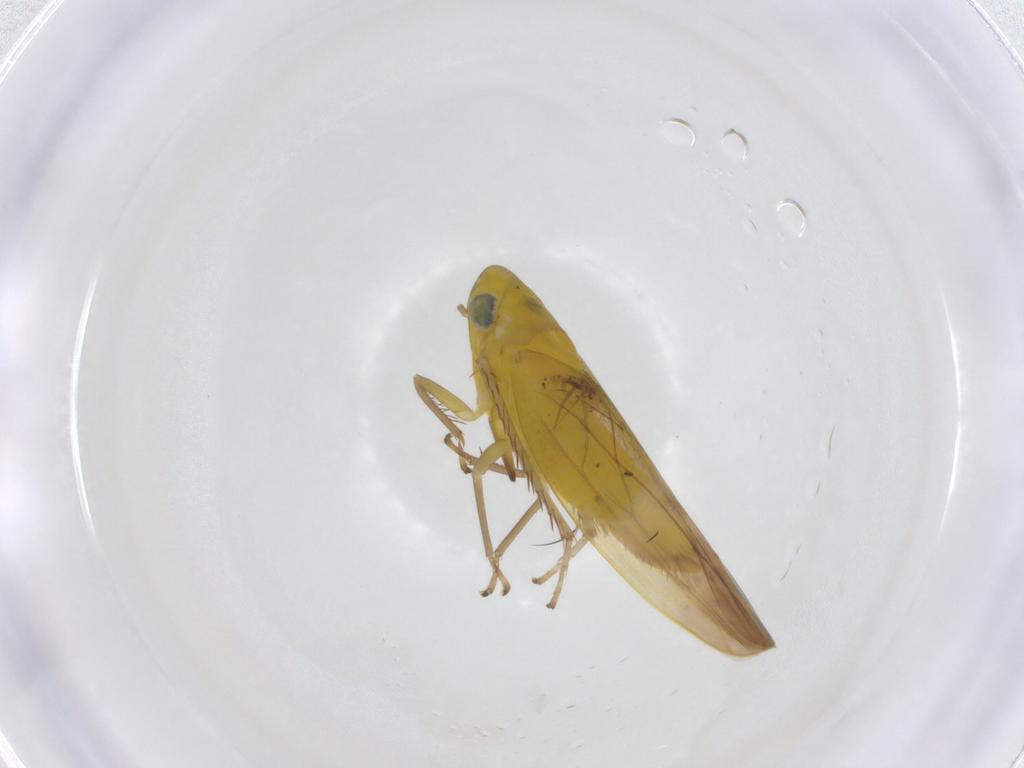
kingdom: Animalia
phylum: Arthropoda
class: Insecta
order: Hemiptera
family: Cicadellidae
